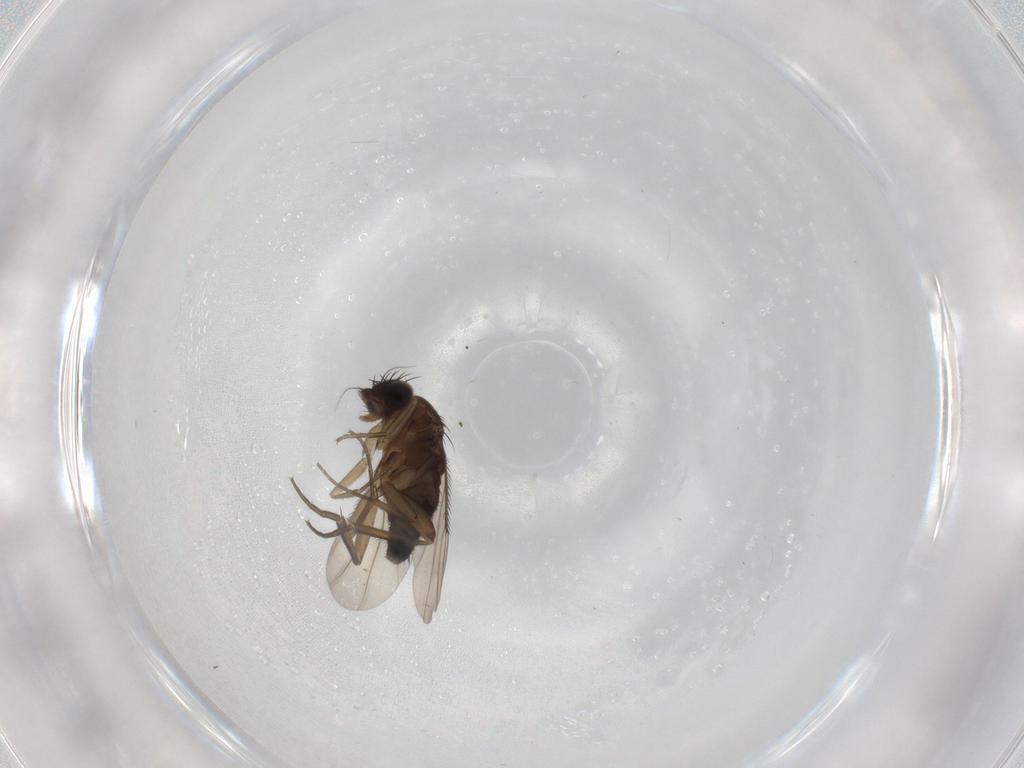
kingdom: Animalia
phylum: Arthropoda
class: Insecta
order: Diptera
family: Phoridae
